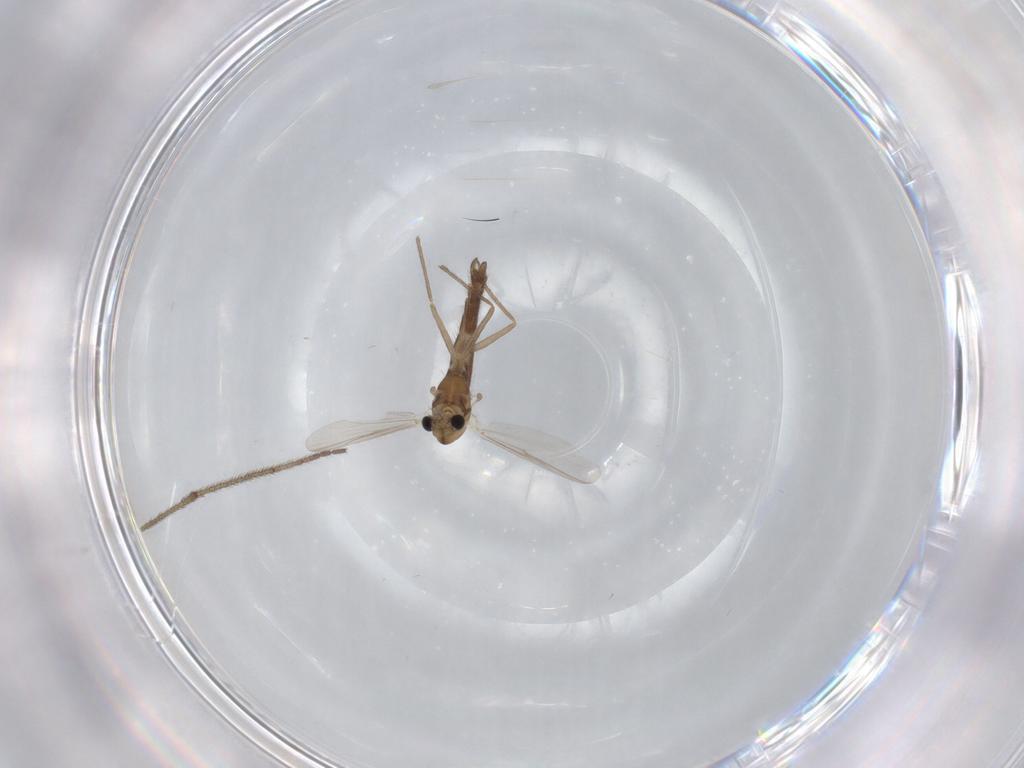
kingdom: Animalia
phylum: Arthropoda
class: Insecta
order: Diptera
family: Chironomidae
